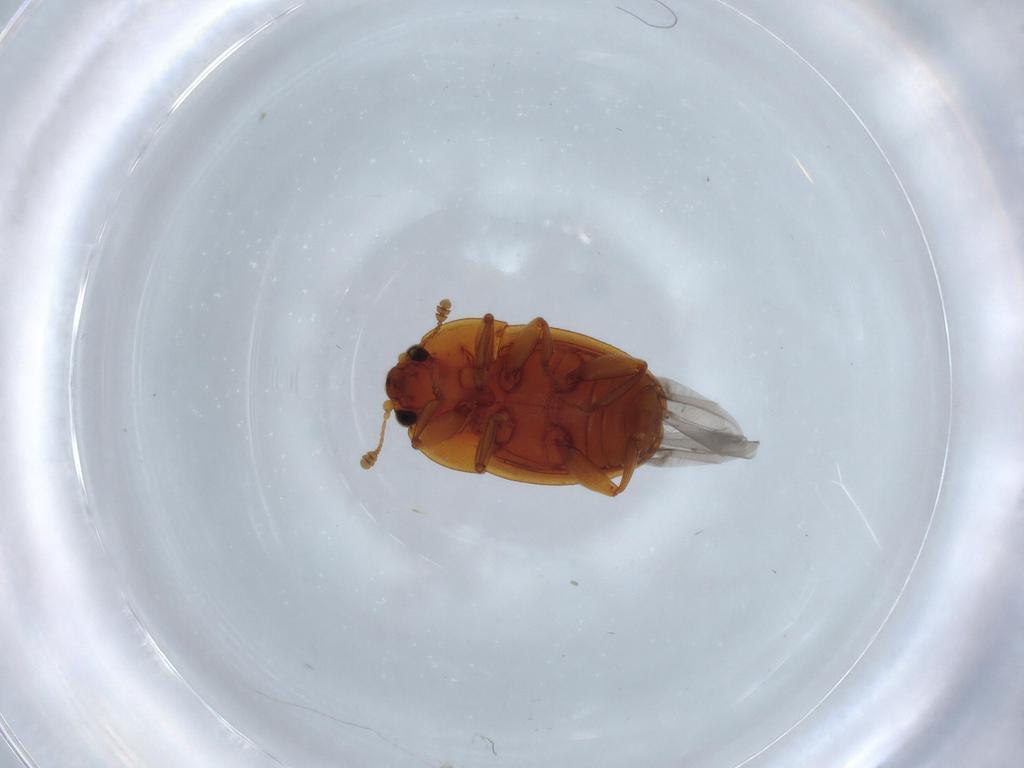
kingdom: Animalia
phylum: Arthropoda
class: Insecta
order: Coleoptera
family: Nitidulidae
